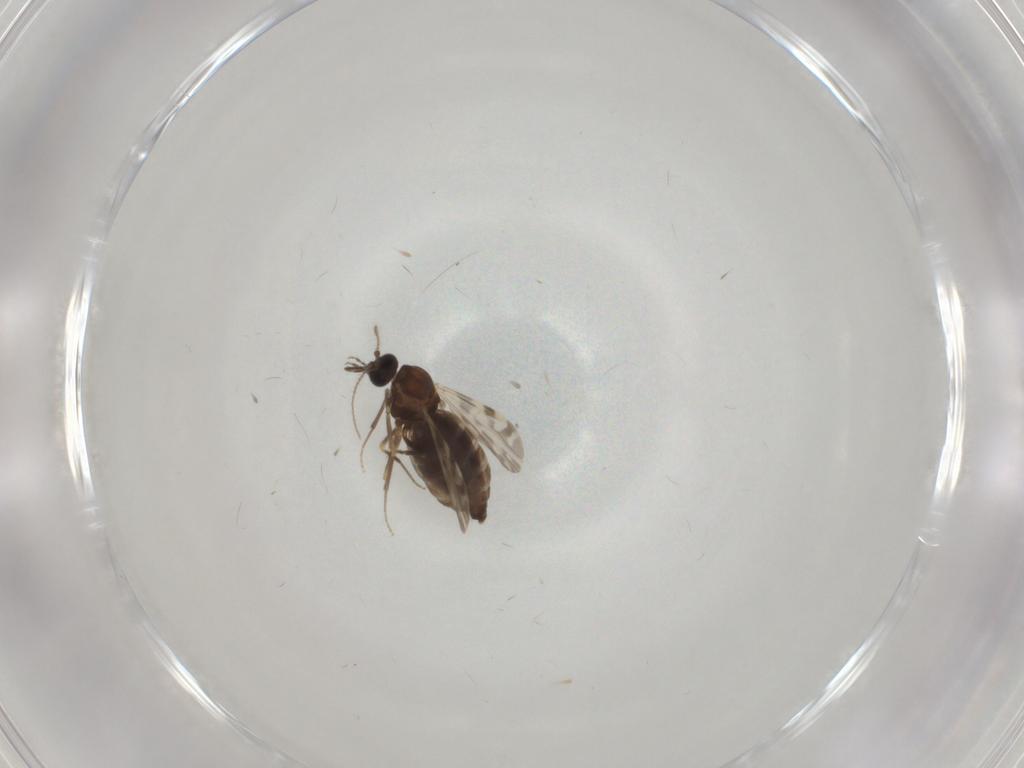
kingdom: Animalia
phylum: Arthropoda
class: Insecta
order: Diptera
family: Ceratopogonidae
